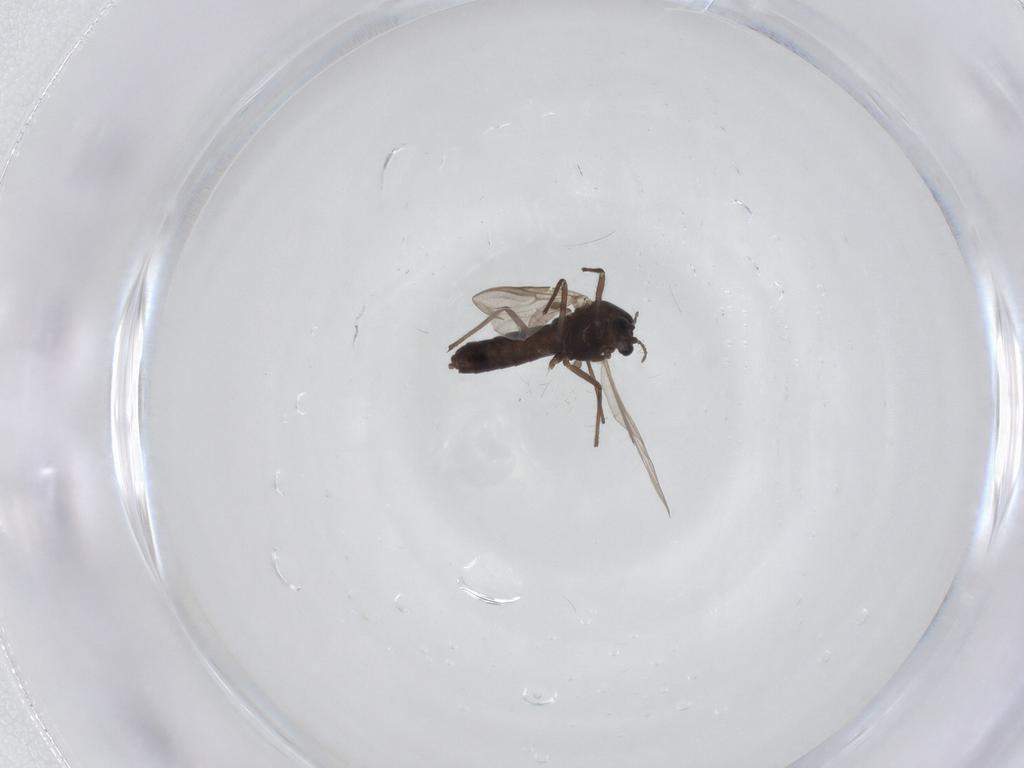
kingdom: Animalia
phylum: Arthropoda
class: Insecta
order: Diptera
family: Chironomidae
